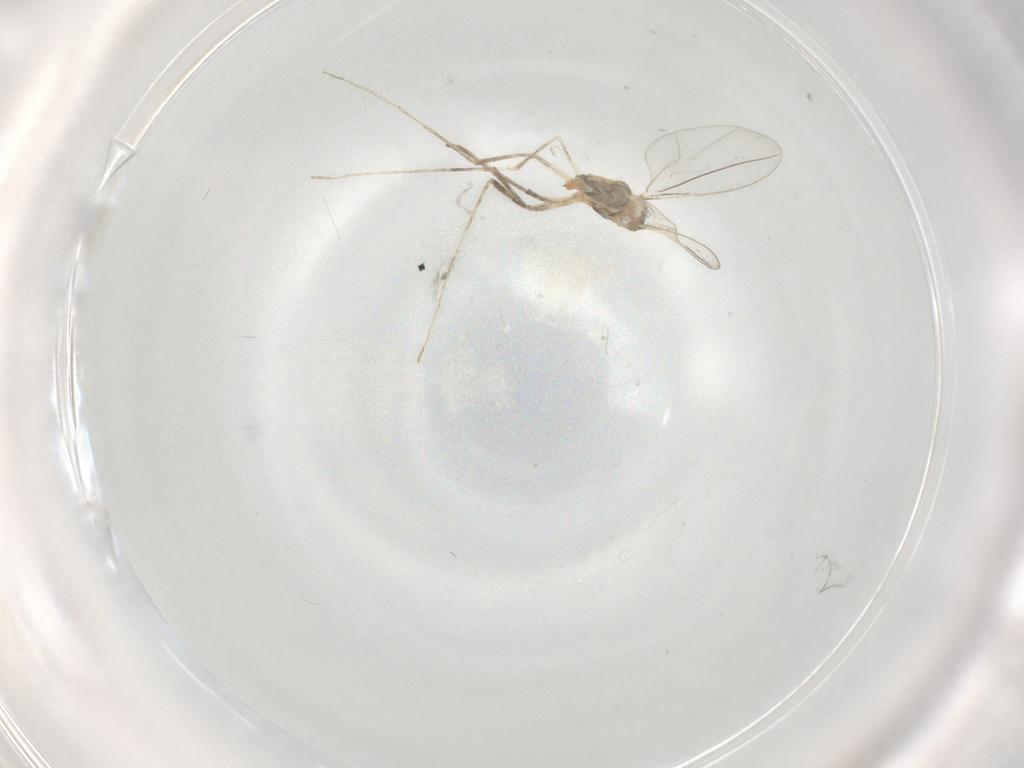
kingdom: Animalia
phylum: Arthropoda
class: Insecta
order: Diptera
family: Cecidomyiidae
